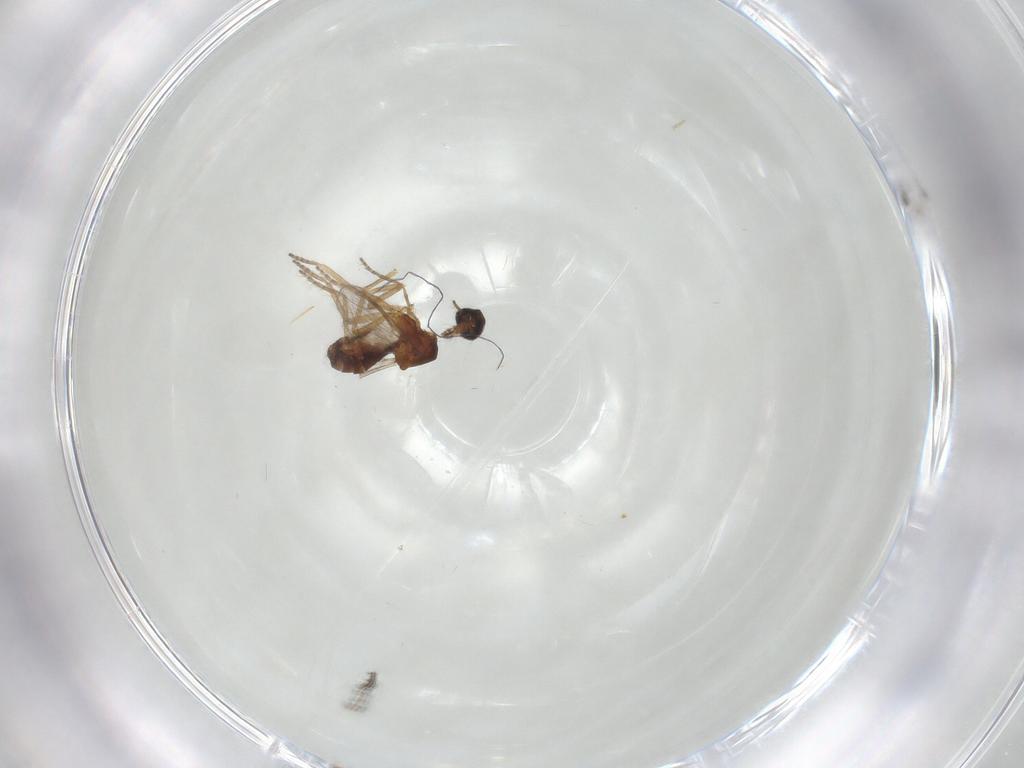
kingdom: Animalia
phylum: Arthropoda
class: Insecta
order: Diptera
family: Ceratopogonidae
